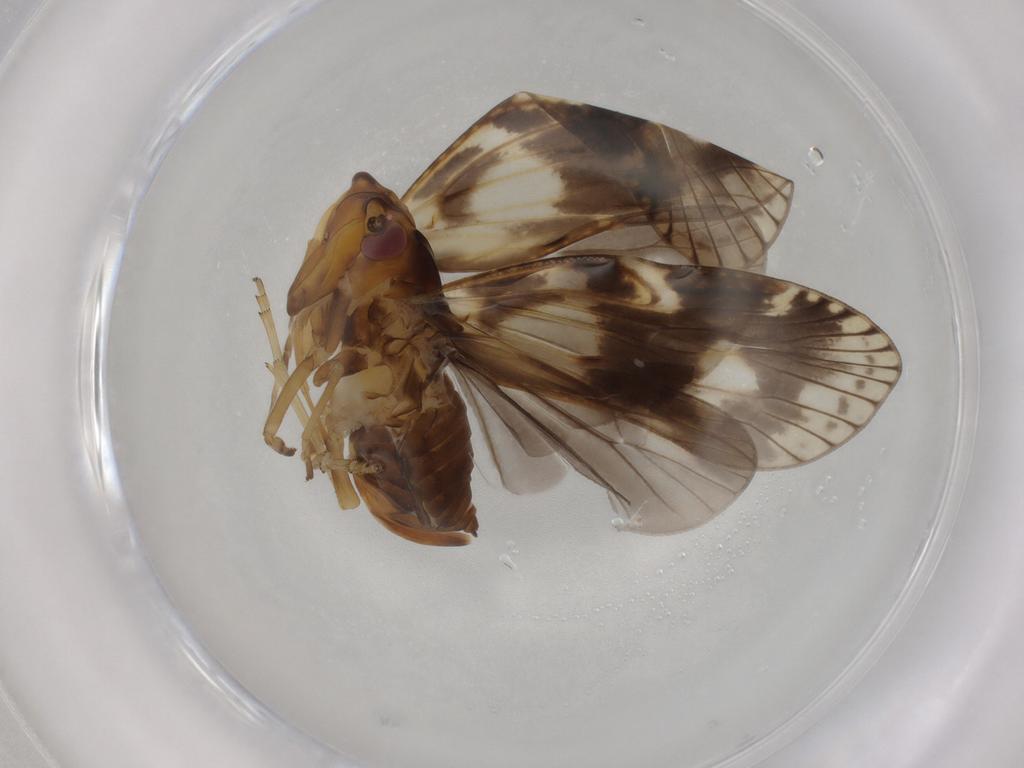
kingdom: Animalia
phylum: Arthropoda
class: Insecta
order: Hemiptera
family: Cixiidae
